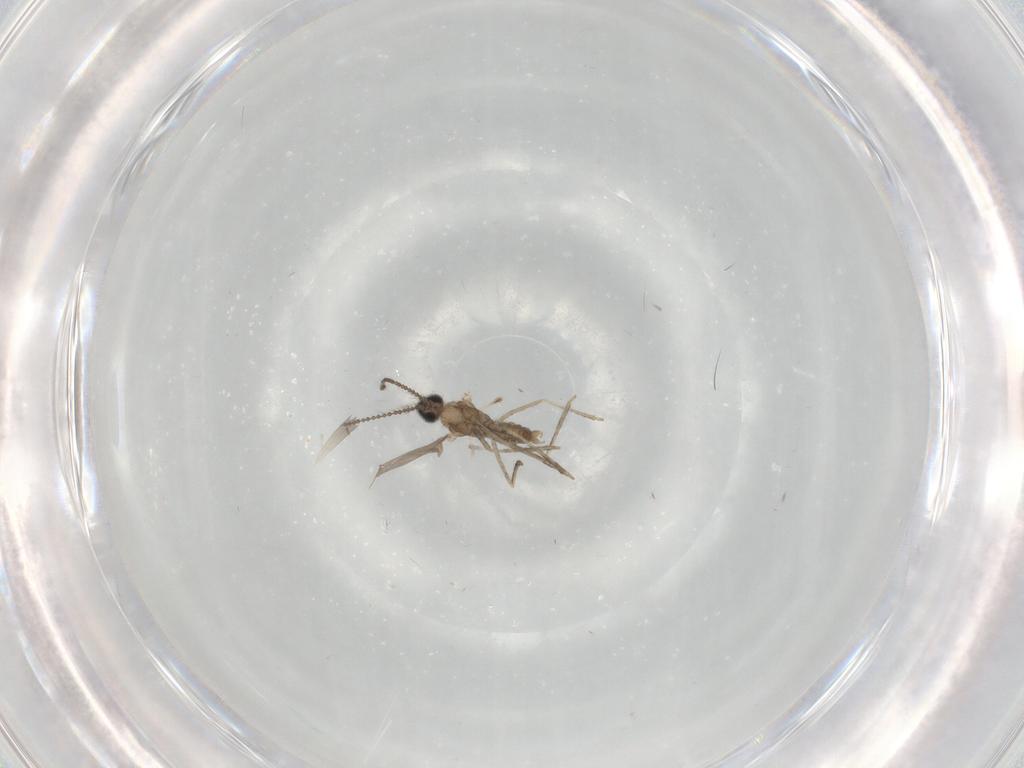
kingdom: Animalia
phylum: Arthropoda
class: Insecta
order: Diptera
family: Cecidomyiidae
